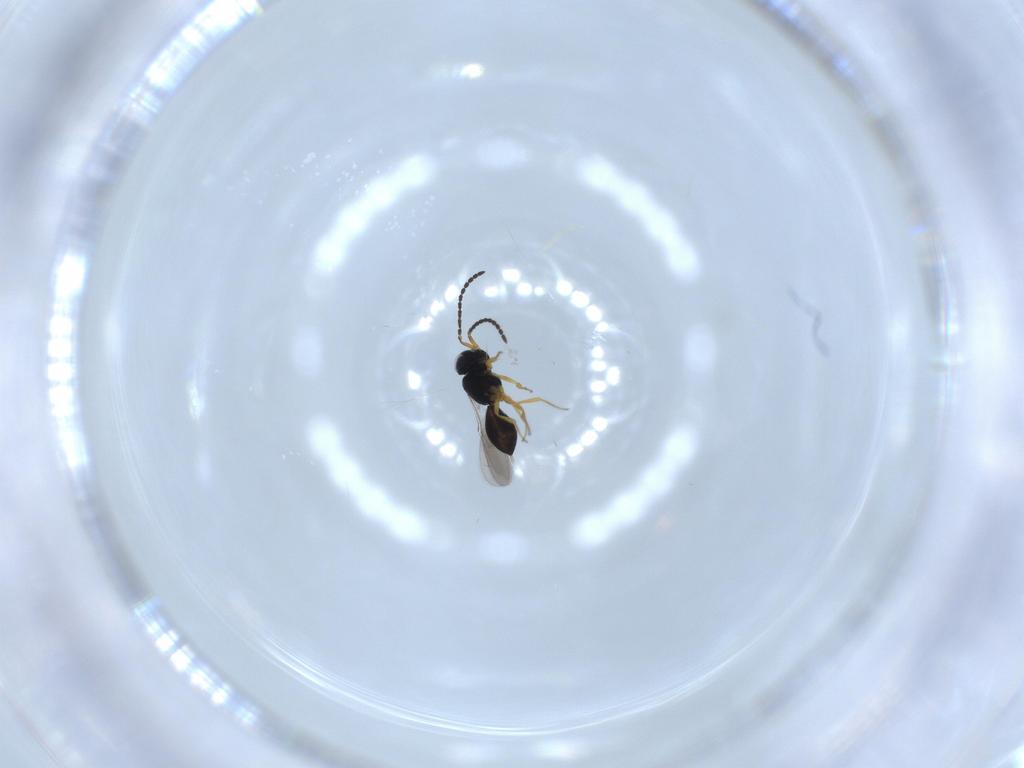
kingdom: Animalia
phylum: Arthropoda
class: Insecta
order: Hymenoptera
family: Scelionidae
